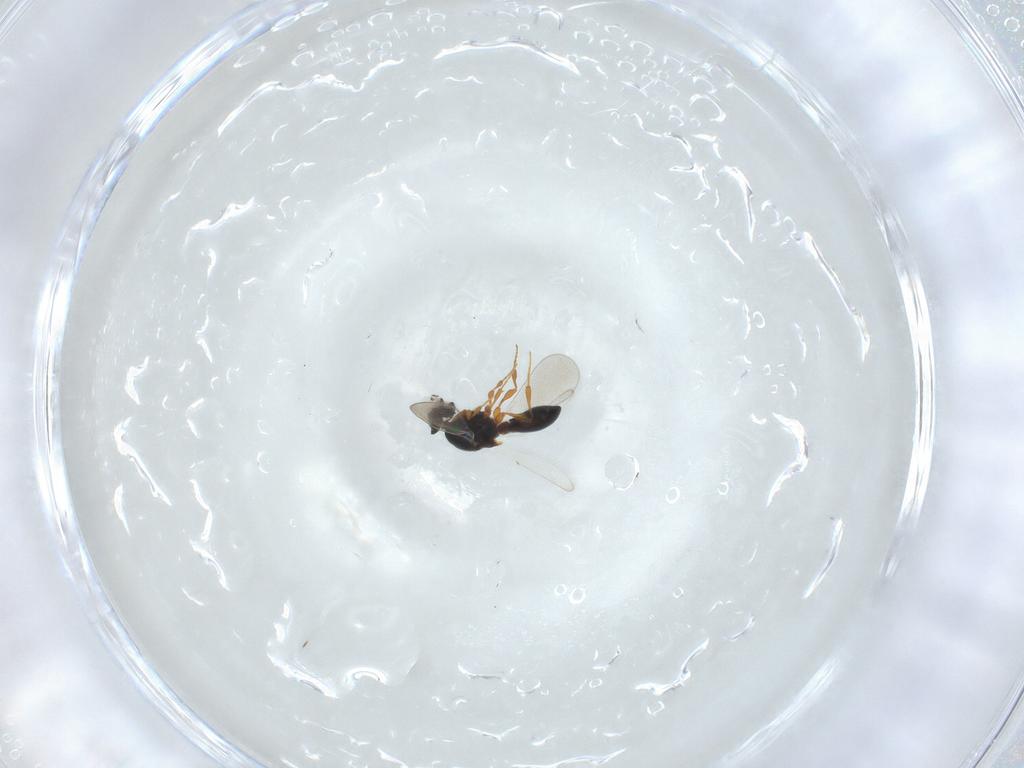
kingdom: Animalia
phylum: Arthropoda
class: Insecta
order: Hymenoptera
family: Platygastridae
